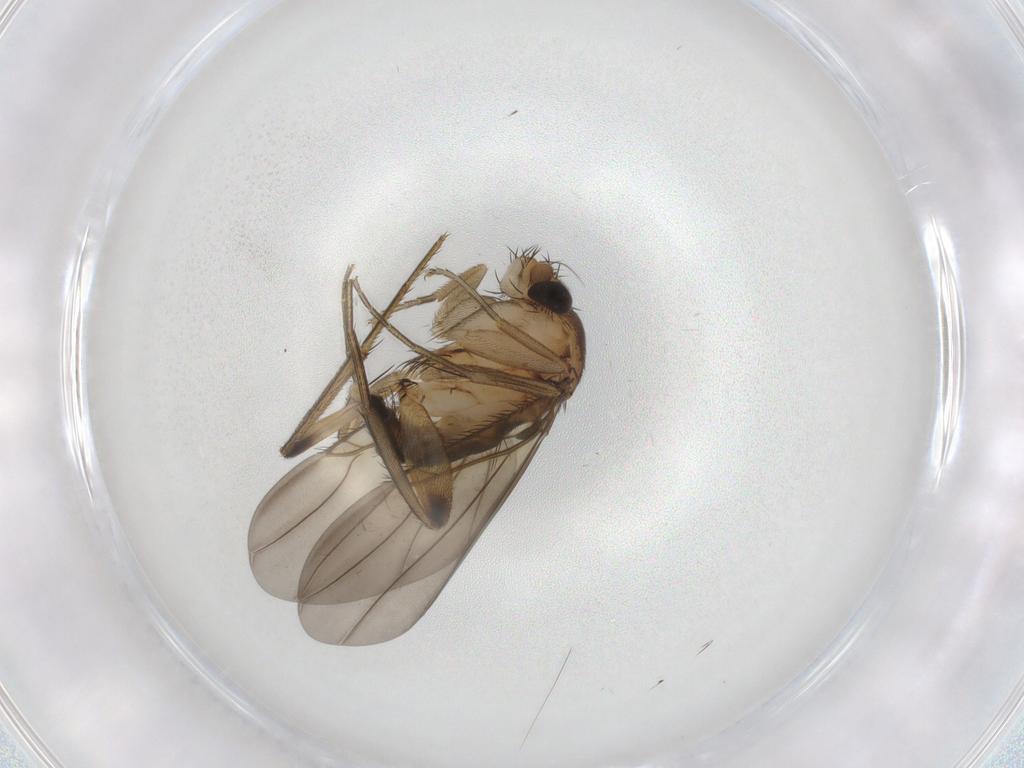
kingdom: Animalia
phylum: Arthropoda
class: Insecta
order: Diptera
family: Phoridae
